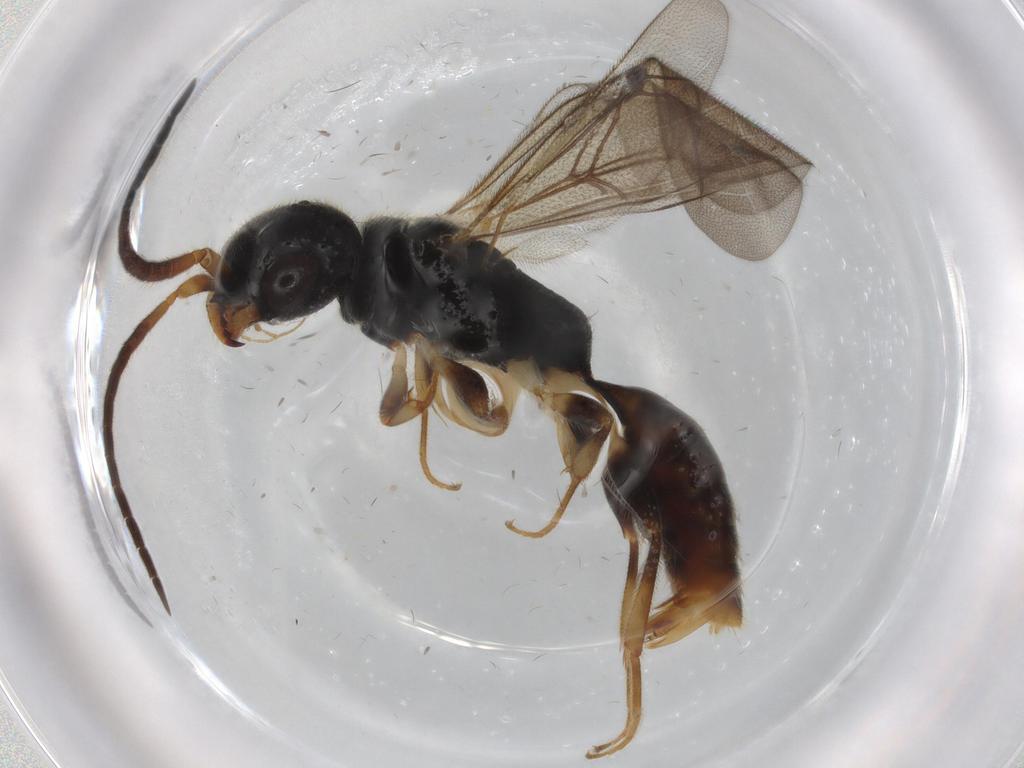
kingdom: Animalia
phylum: Arthropoda
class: Insecta
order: Hymenoptera
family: Bethylidae
